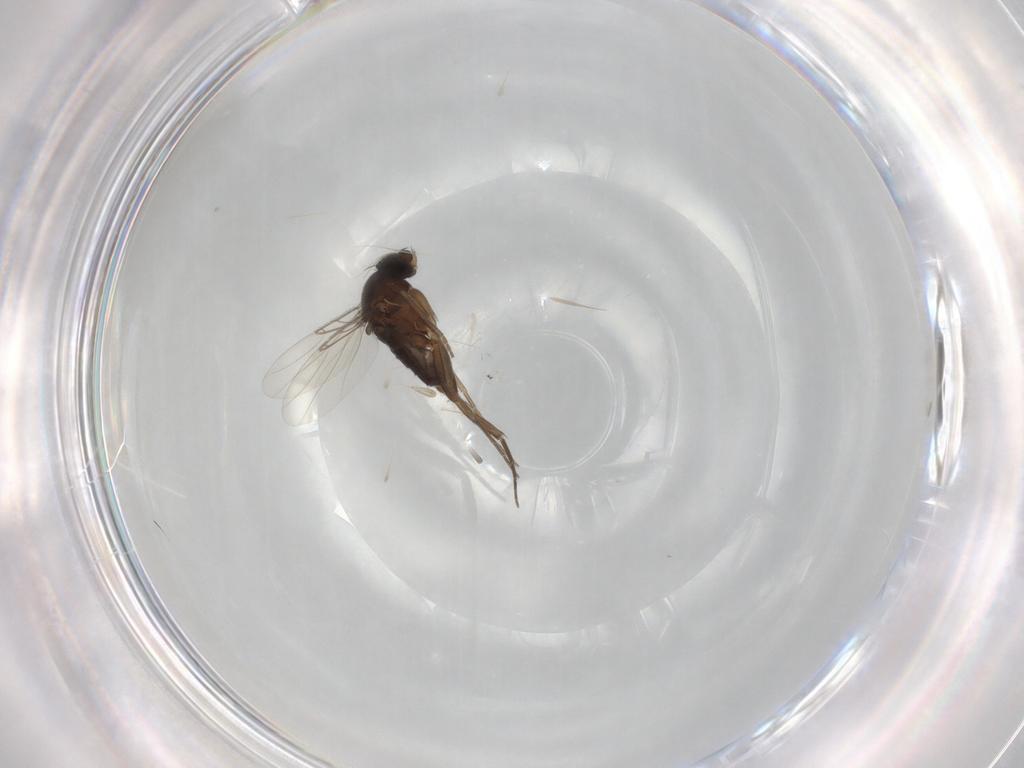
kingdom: Animalia
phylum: Arthropoda
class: Insecta
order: Diptera
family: Phoridae
